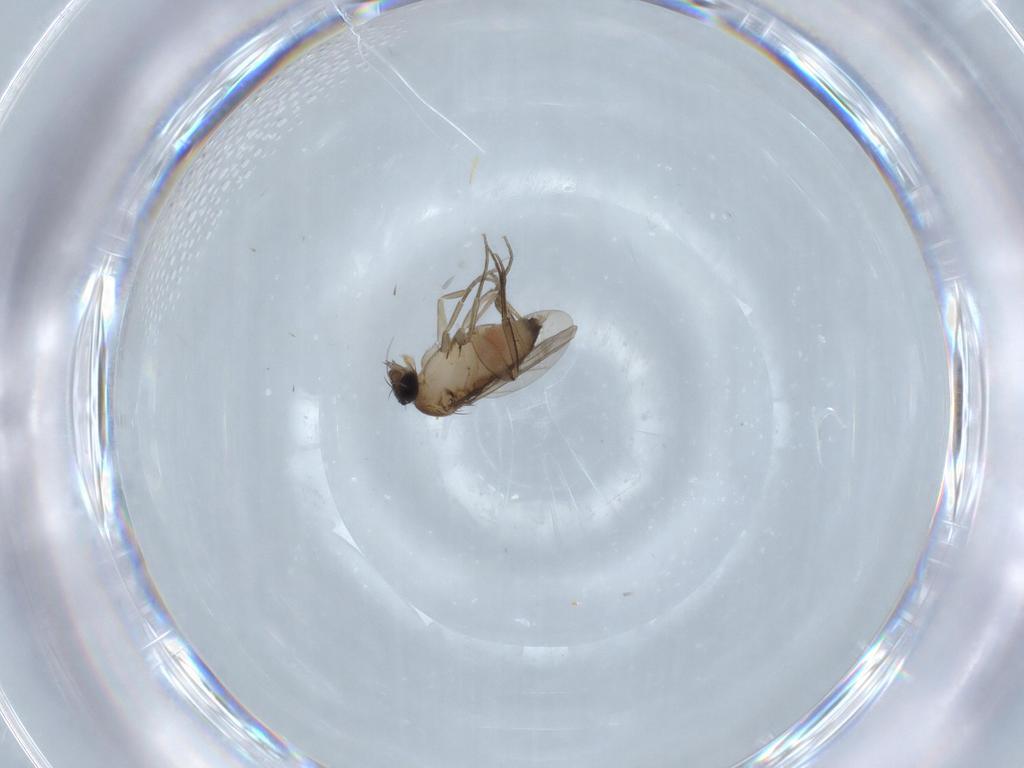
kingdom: Animalia
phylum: Arthropoda
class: Insecta
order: Diptera
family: Phoridae
